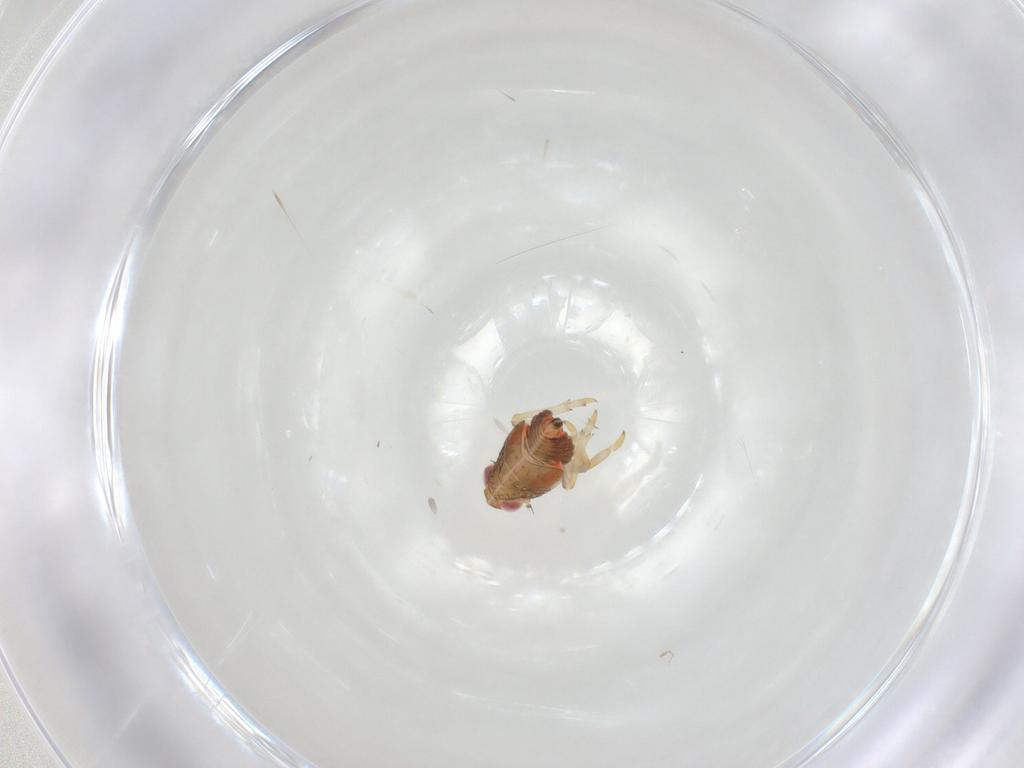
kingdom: Animalia
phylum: Arthropoda
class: Insecta
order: Hemiptera
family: Issidae
